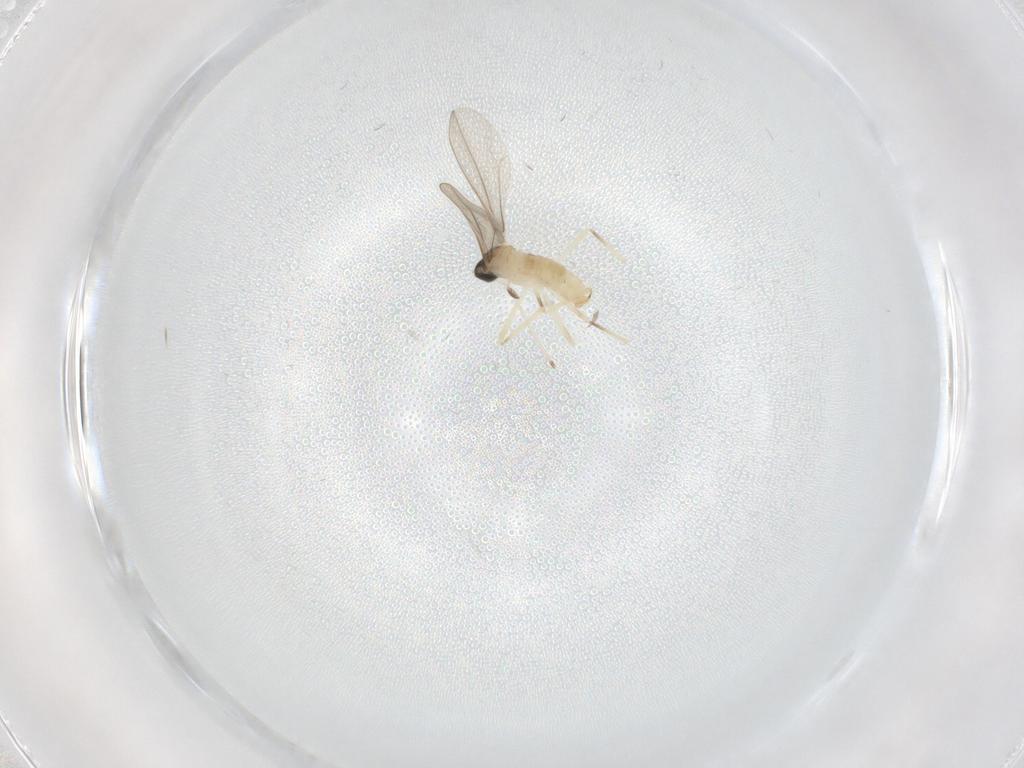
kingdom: Animalia
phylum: Arthropoda
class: Insecta
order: Diptera
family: Cecidomyiidae
